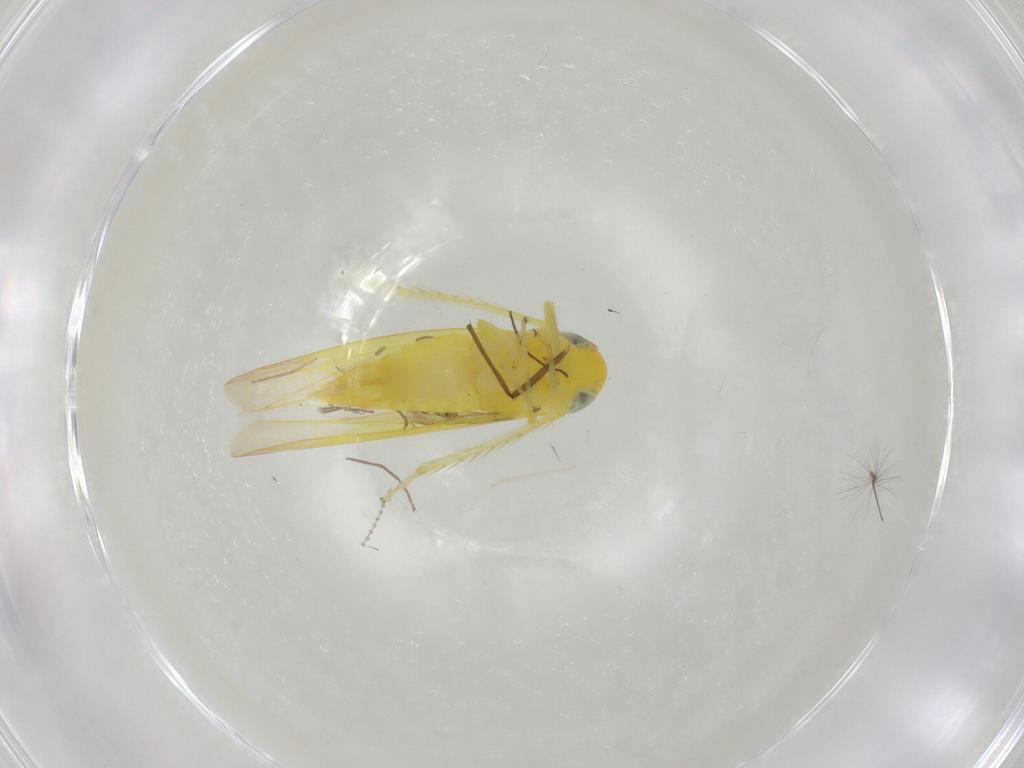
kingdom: Animalia
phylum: Arthropoda
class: Insecta
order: Hemiptera
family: Cicadellidae
